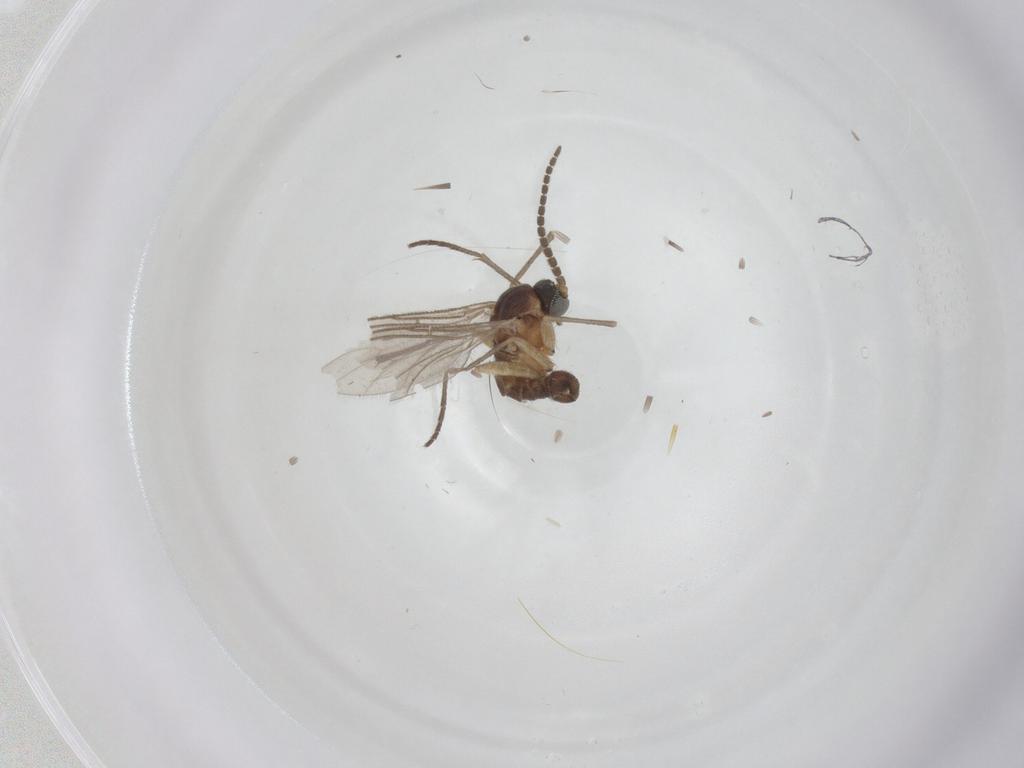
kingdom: Animalia
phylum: Arthropoda
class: Insecta
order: Diptera
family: Sciaridae
